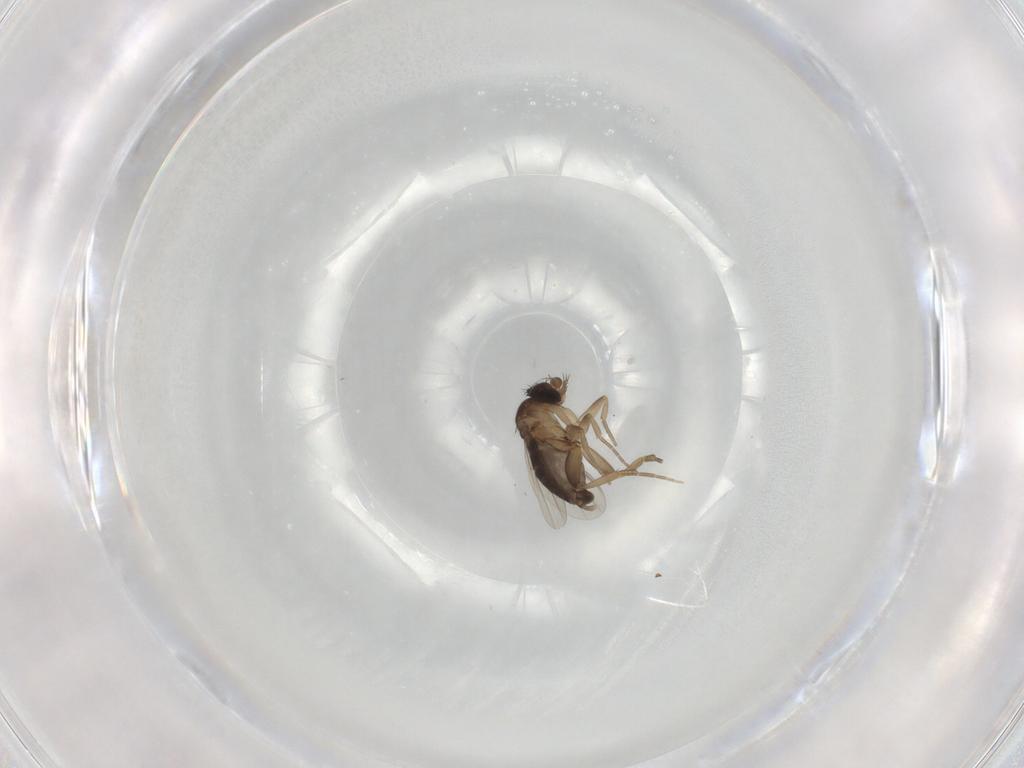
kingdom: Animalia
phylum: Arthropoda
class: Insecta
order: Diptera
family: Phoridae
